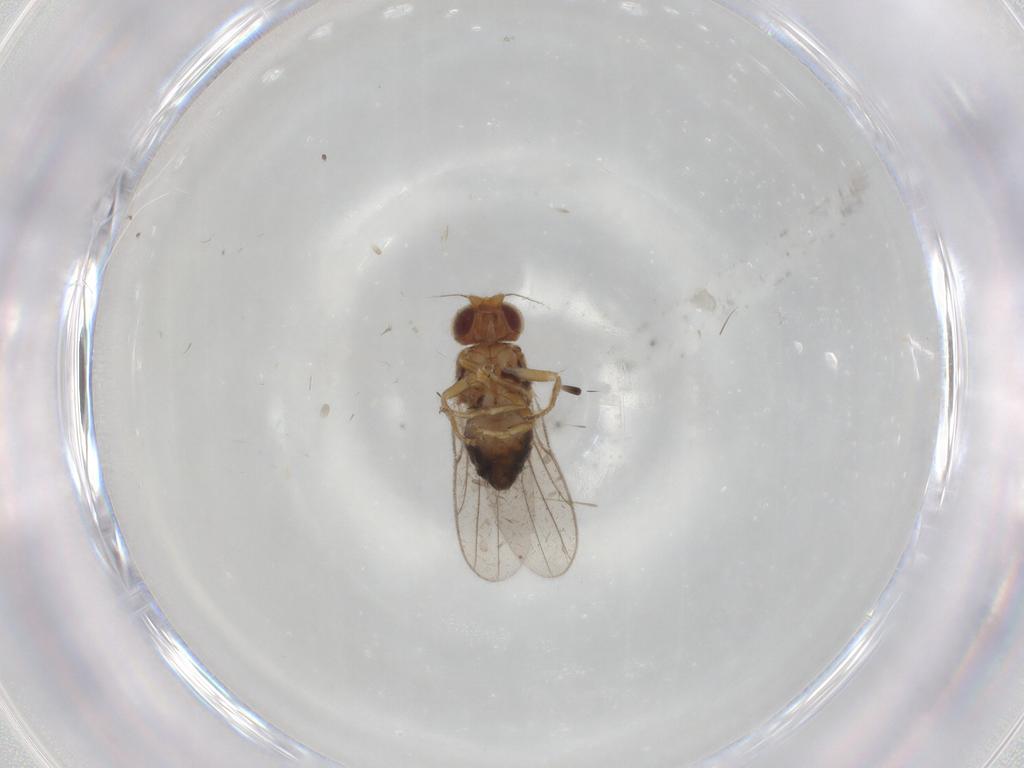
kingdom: Animalia
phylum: Arthropoda
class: Insecta
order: Diptera
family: Chloropidae
